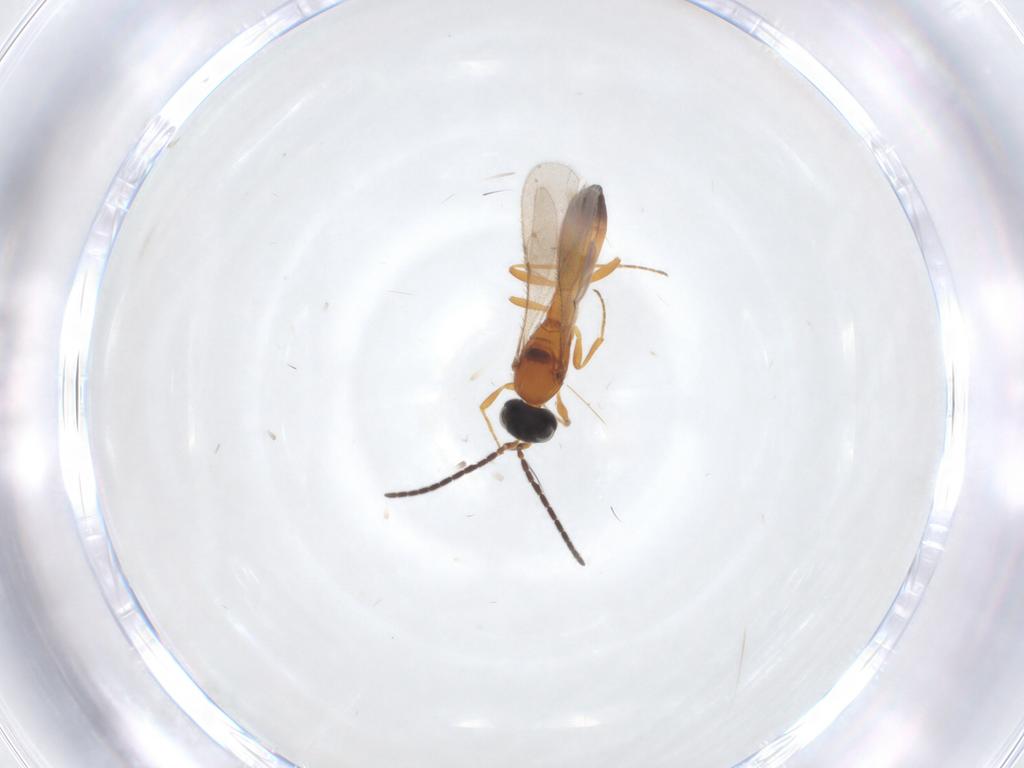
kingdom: Animalia
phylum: Arthropoda
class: Insecta
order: Hymenoptera
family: Scelionidae
